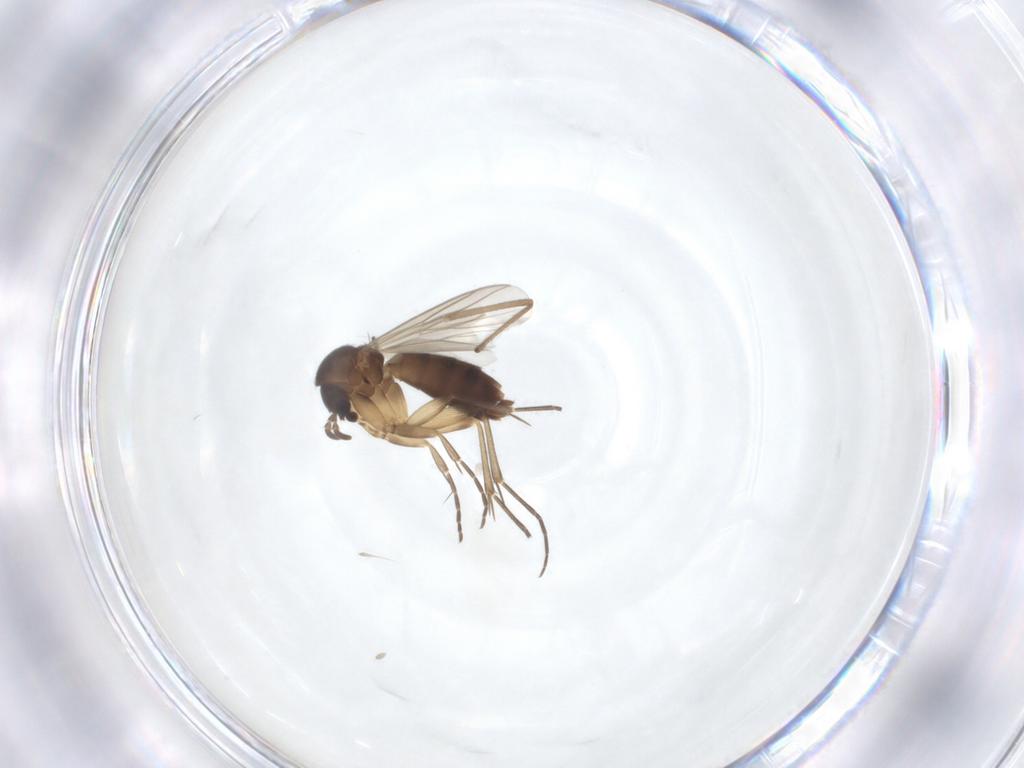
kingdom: Animalia
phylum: Arthropoda
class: Insecta
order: Diptera
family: Mycetophilidae
